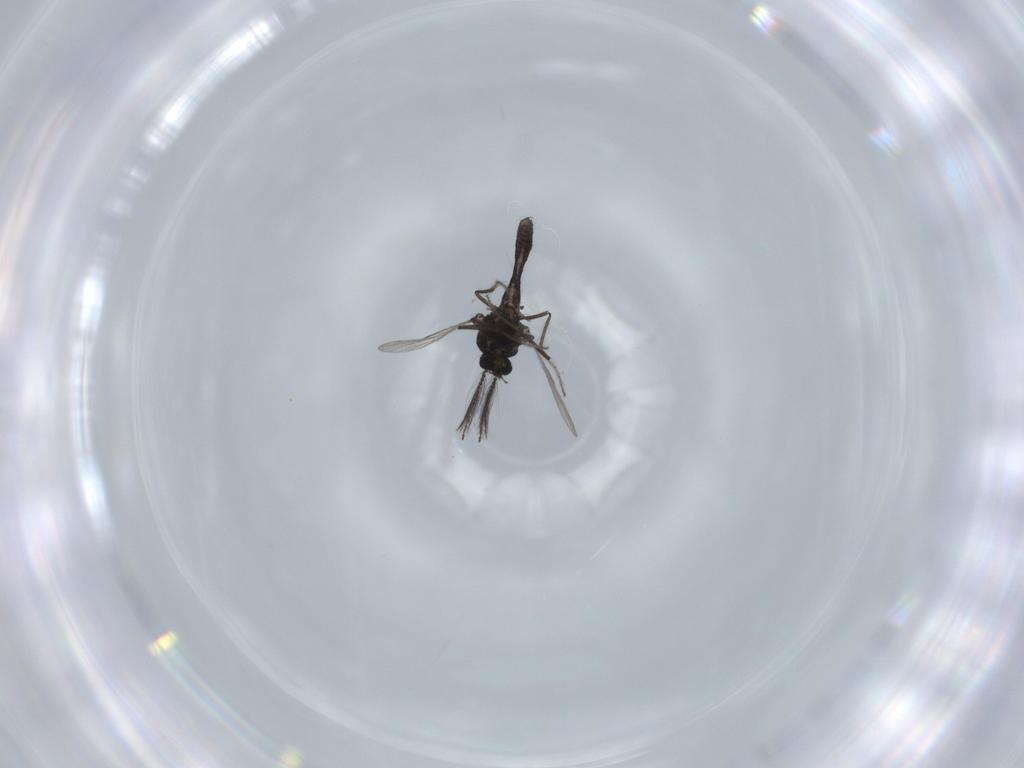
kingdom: Animalia
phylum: Arthropoda
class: Insecta
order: Diptera
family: Ceratopogonidae
